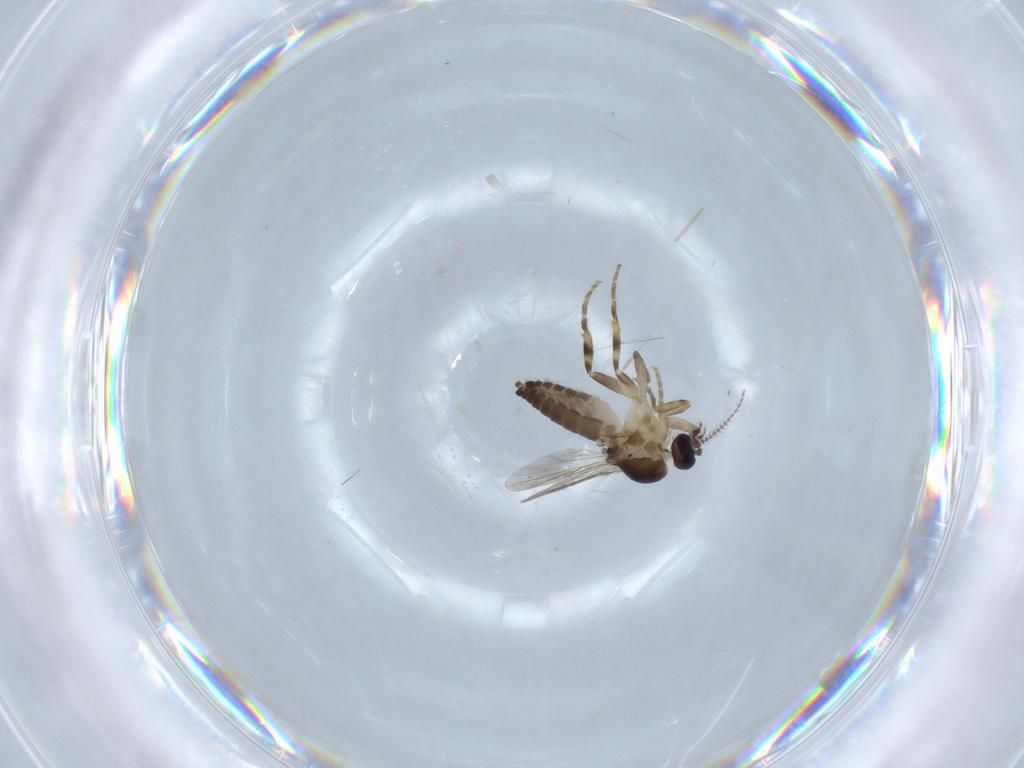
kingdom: Animalia
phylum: Arthropoda
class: Insecta
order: Diptera
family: Ceratopogonidae
